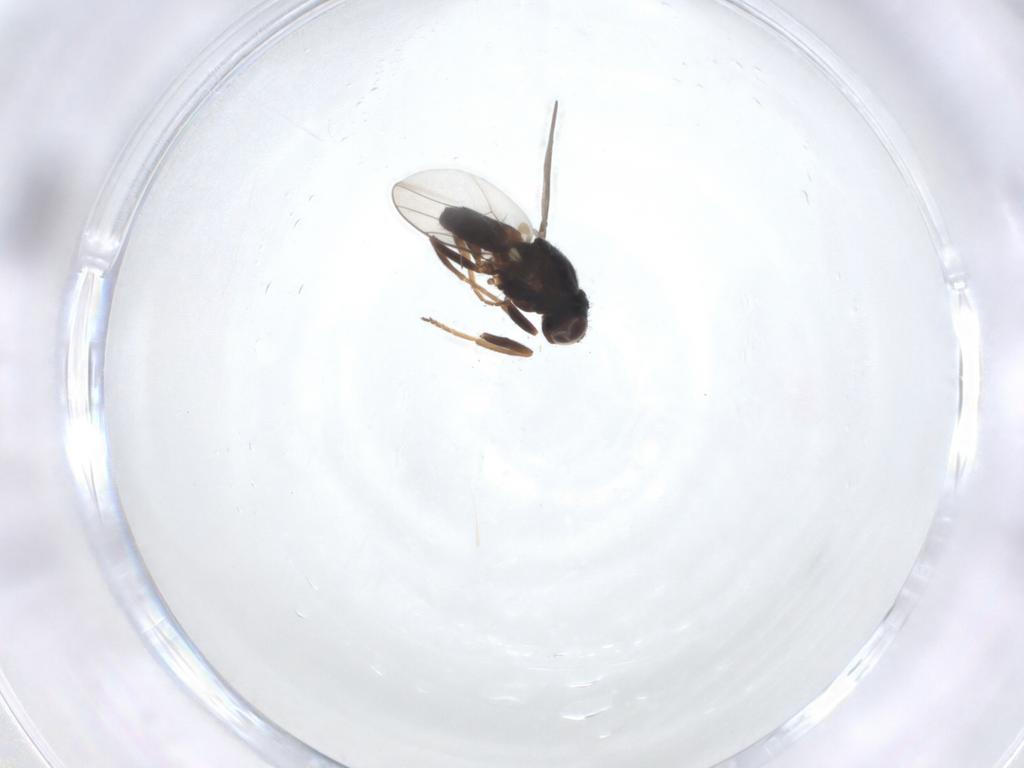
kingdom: Animalia
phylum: Arthropoda
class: Insecta
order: Diptera
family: Chloropidae
